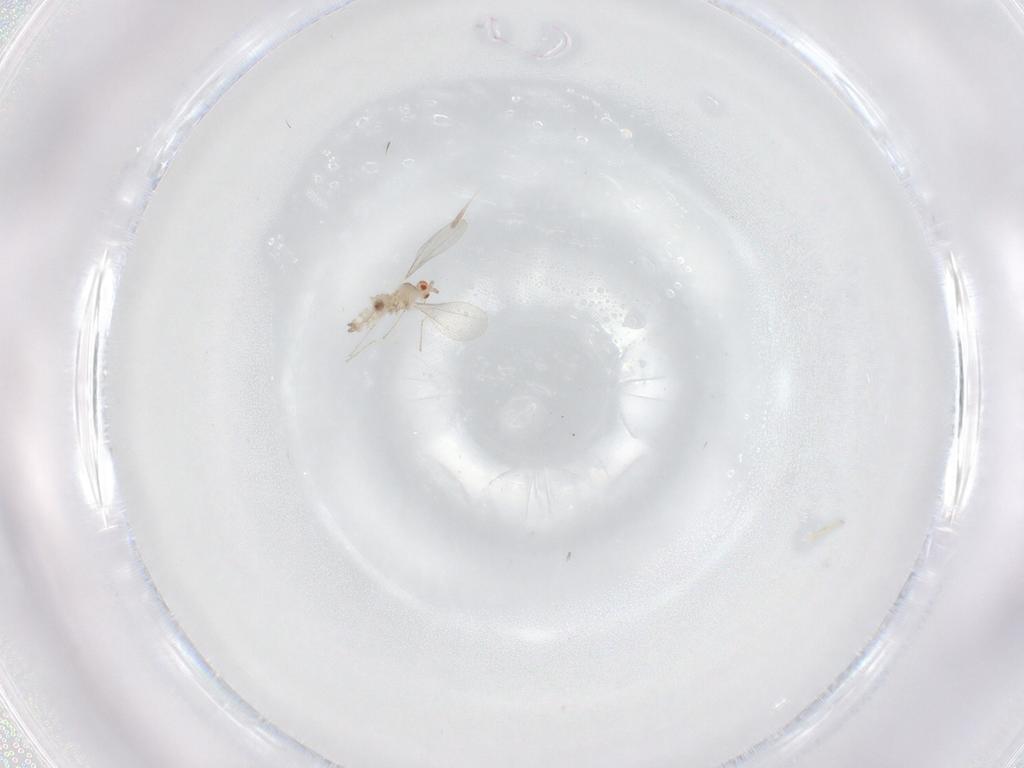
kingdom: Animalia
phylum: Arthropoda
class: Insecta
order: Diptera
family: Cecidomyiidae
